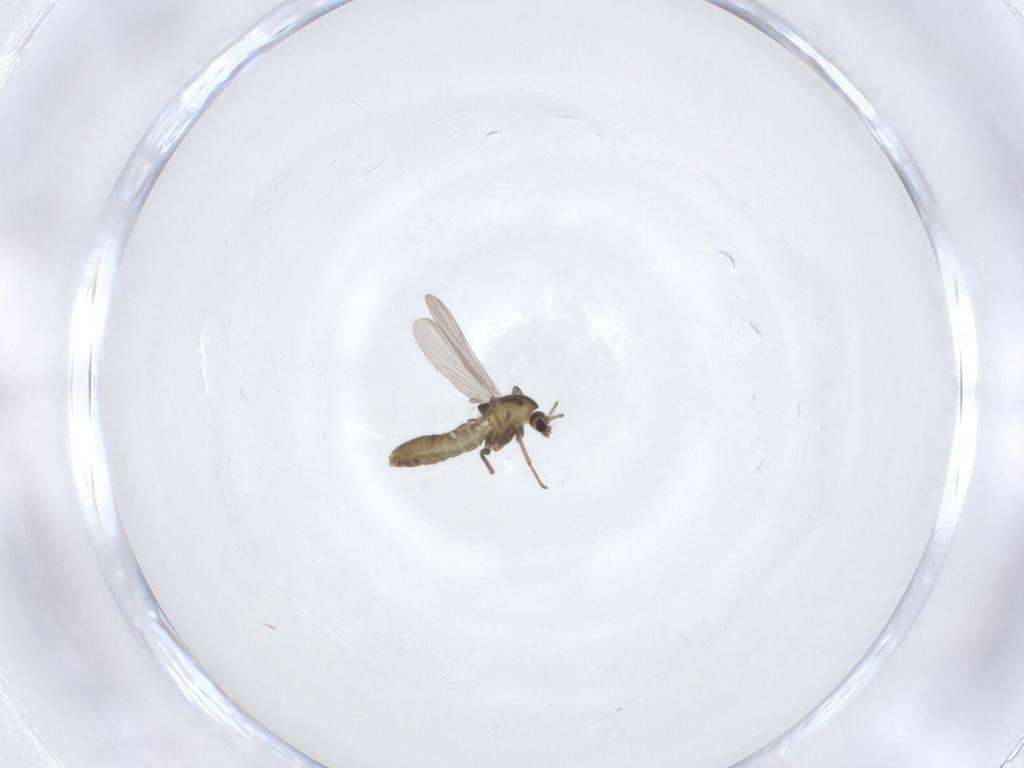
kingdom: Animalia
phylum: Arthropoda
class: Insecta
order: Diptera
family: Chironomidae
